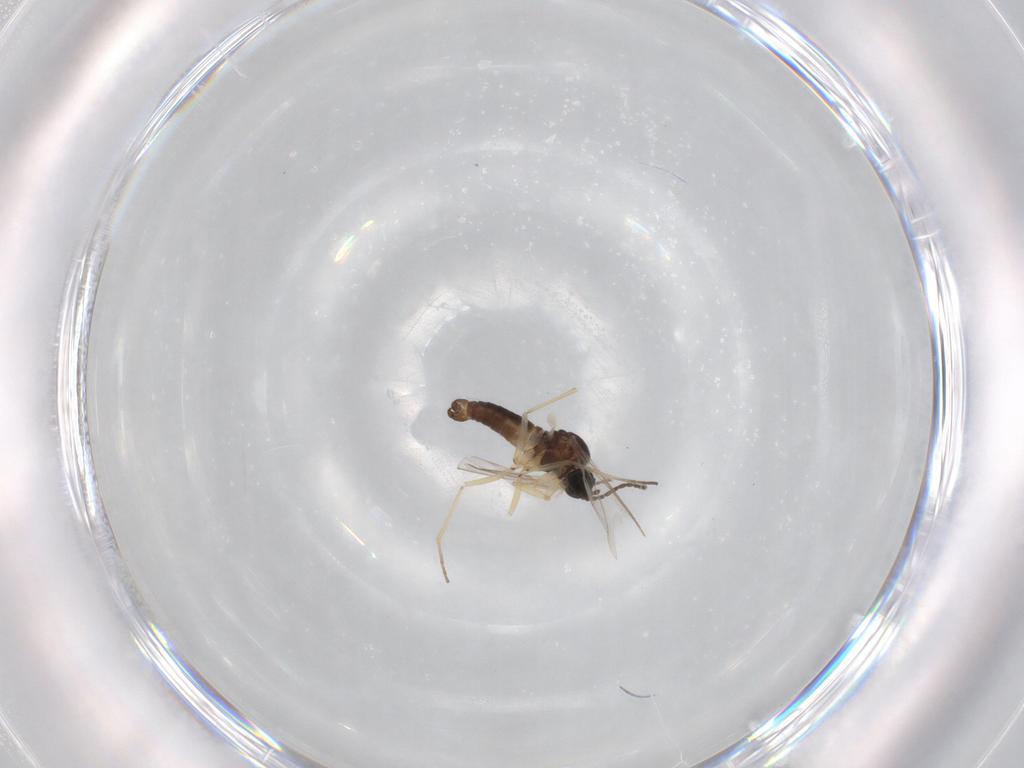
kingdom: Animalia
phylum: Arthropoda
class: Insecta
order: Diptera
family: Sciaridae
